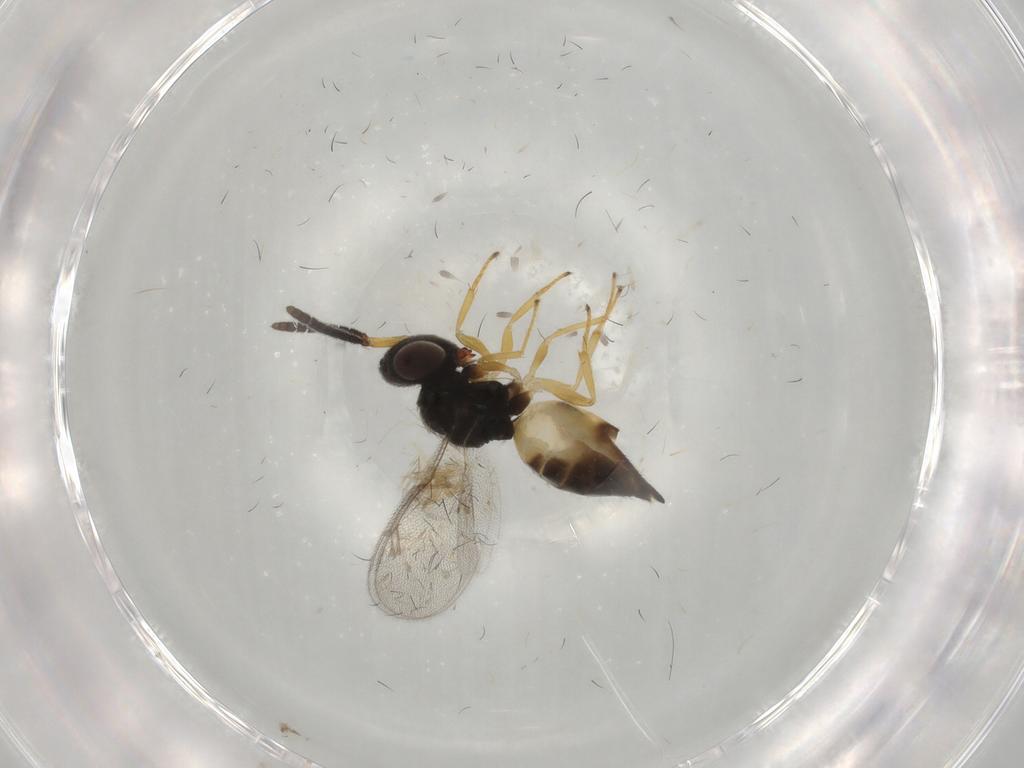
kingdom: Animalia
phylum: Arthropoda
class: Insecta
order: Hymenoptera
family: Pteromalidae
